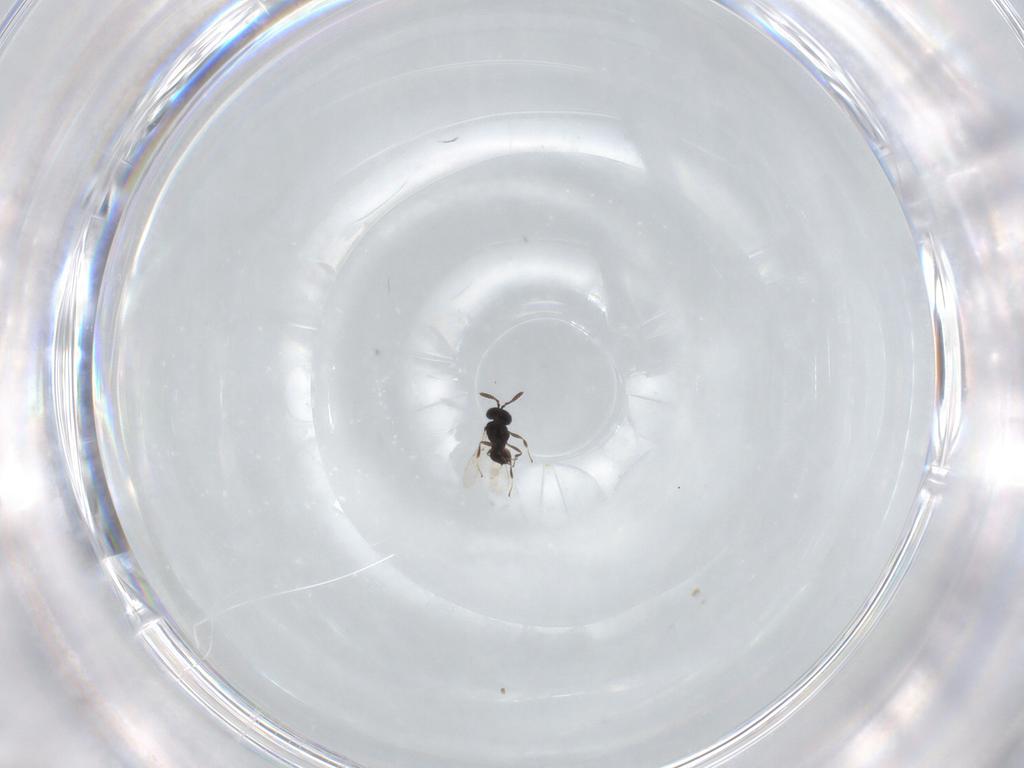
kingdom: Animalia
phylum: Arthropoda
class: Insecta
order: Hymenoptera
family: Scelionidae
